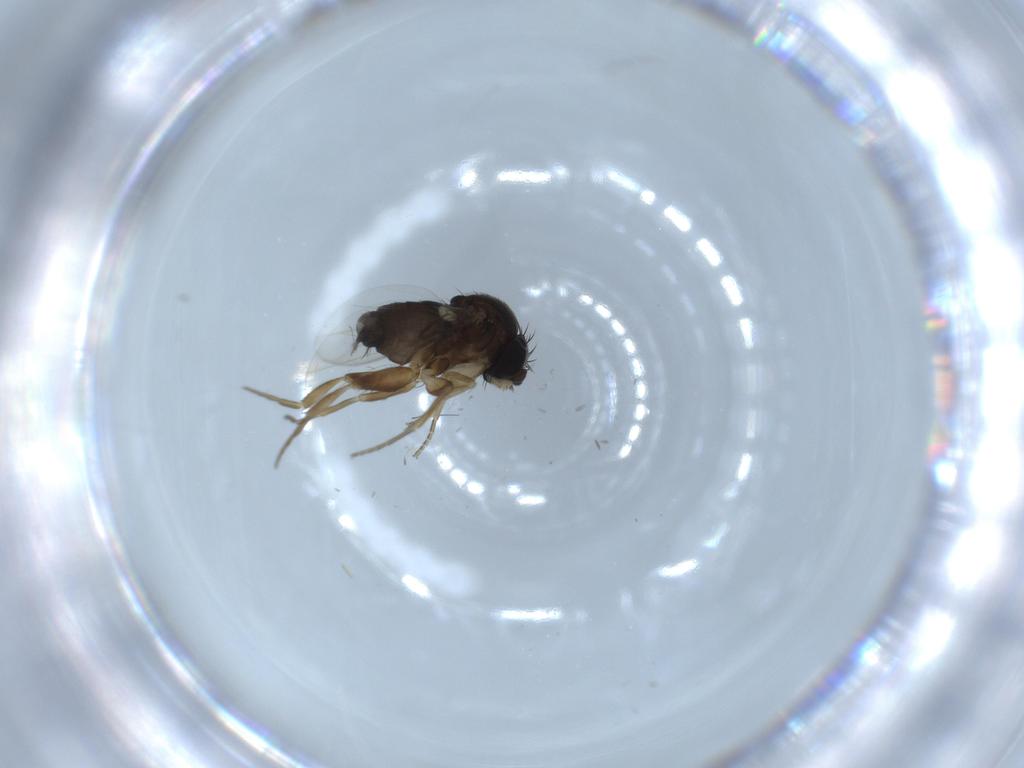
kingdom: Animalia
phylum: Arthropoda
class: Insecta
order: Diptera
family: Phoridae
